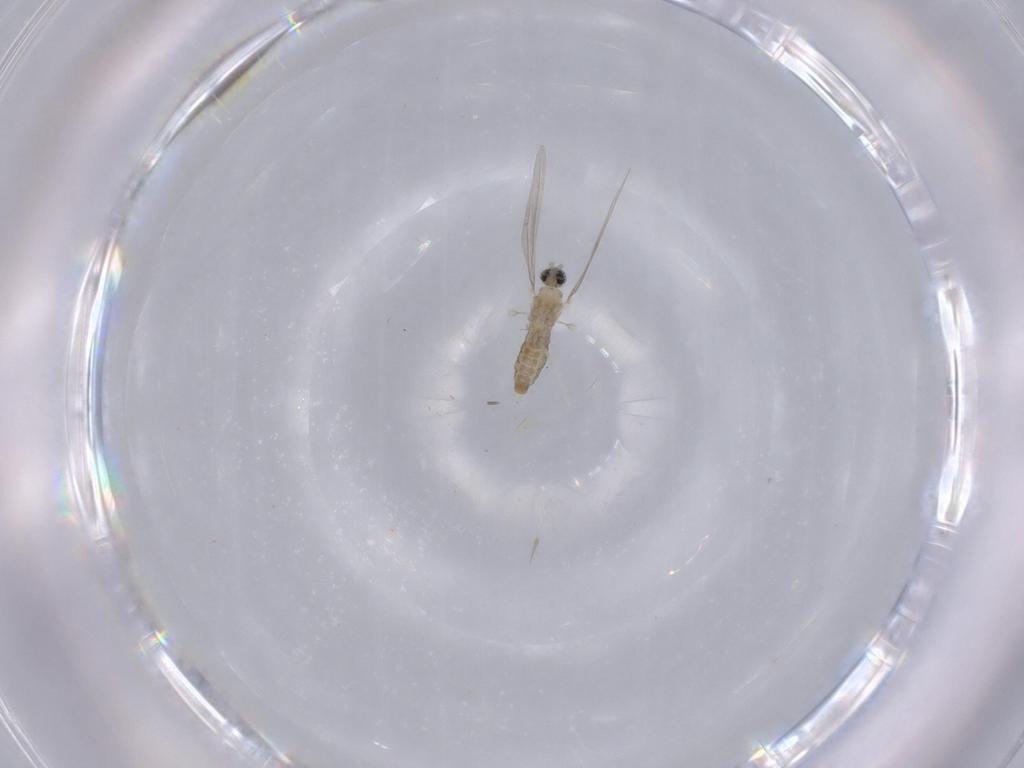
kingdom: Animalia
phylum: Arthropoda
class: Insecta
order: Diptera
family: Cecidomyiidae
